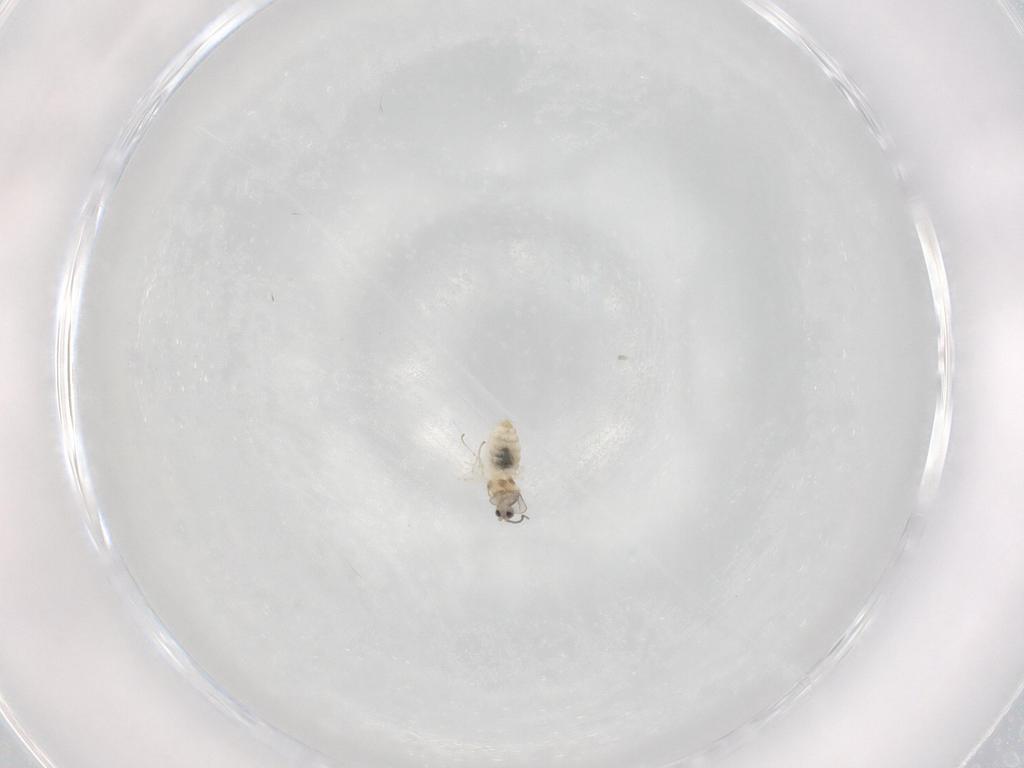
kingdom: Animalia
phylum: Arthropoda
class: Insecta
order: Diptera
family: Cecidomyiidae
